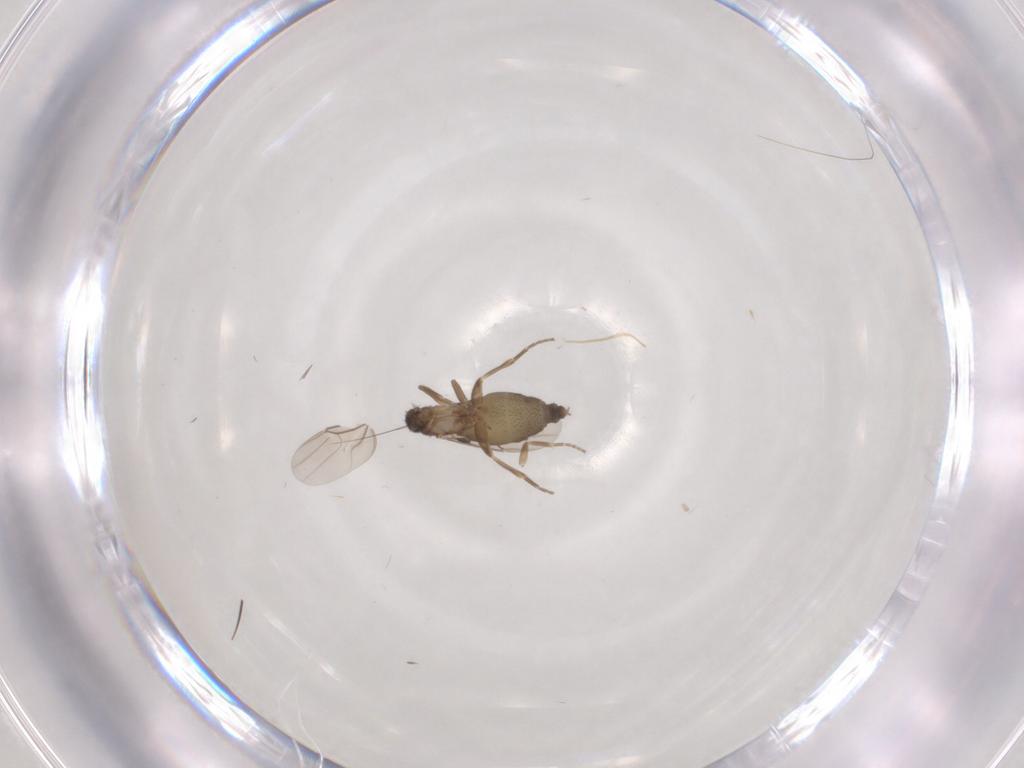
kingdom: Animalia
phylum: Arthropoda
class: Insecta
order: Diptera
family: Phoridae
